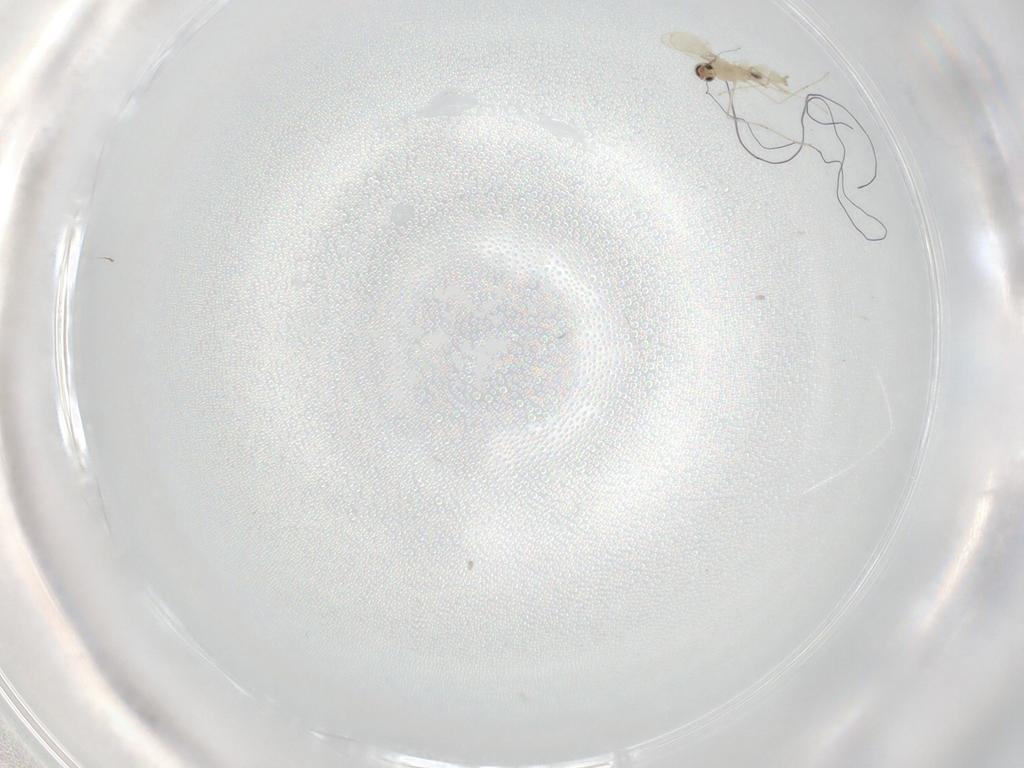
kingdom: Animalia
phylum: Arthropoda
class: Insecta
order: Diptera
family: Cecidomyiidae
